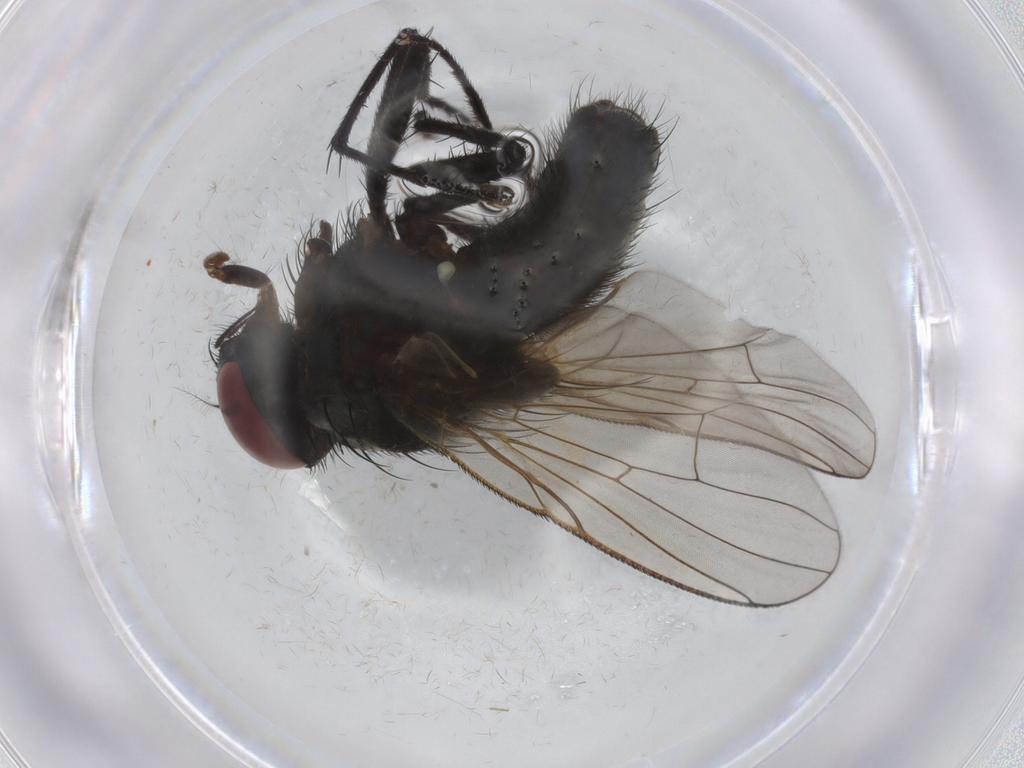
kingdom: Animalia
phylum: Arthropoda
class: Insecta
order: Diptera
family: Muscidae
